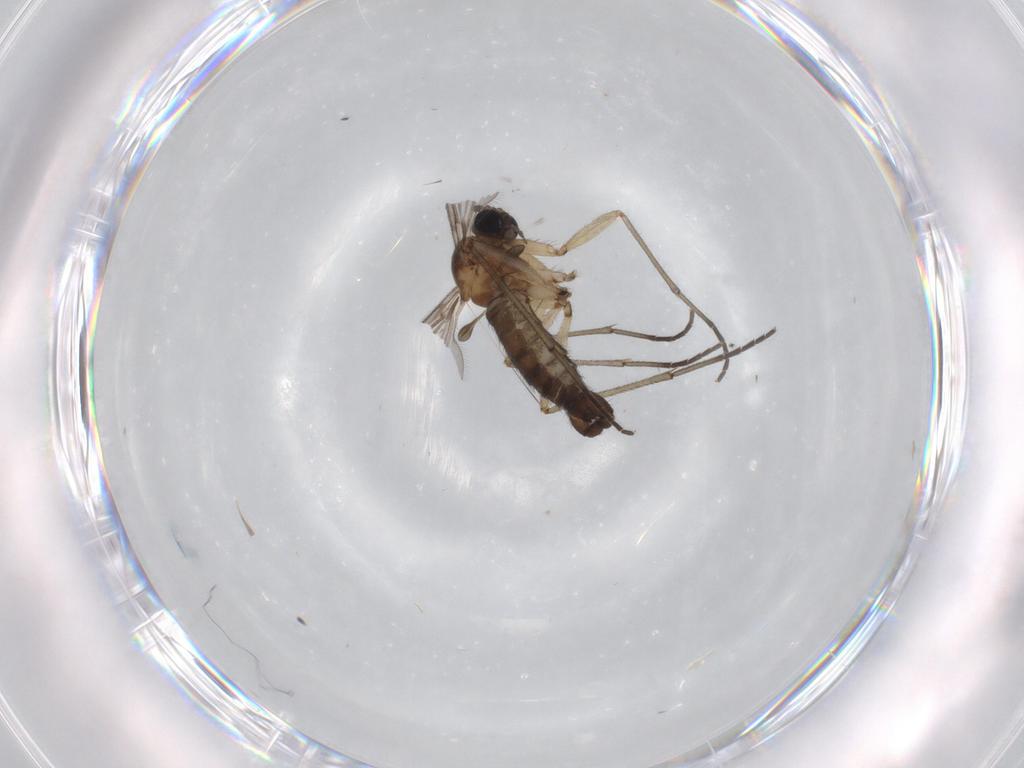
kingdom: Animalia
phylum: Arthropoda
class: Insecta
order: Diptera
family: Sciaridae
